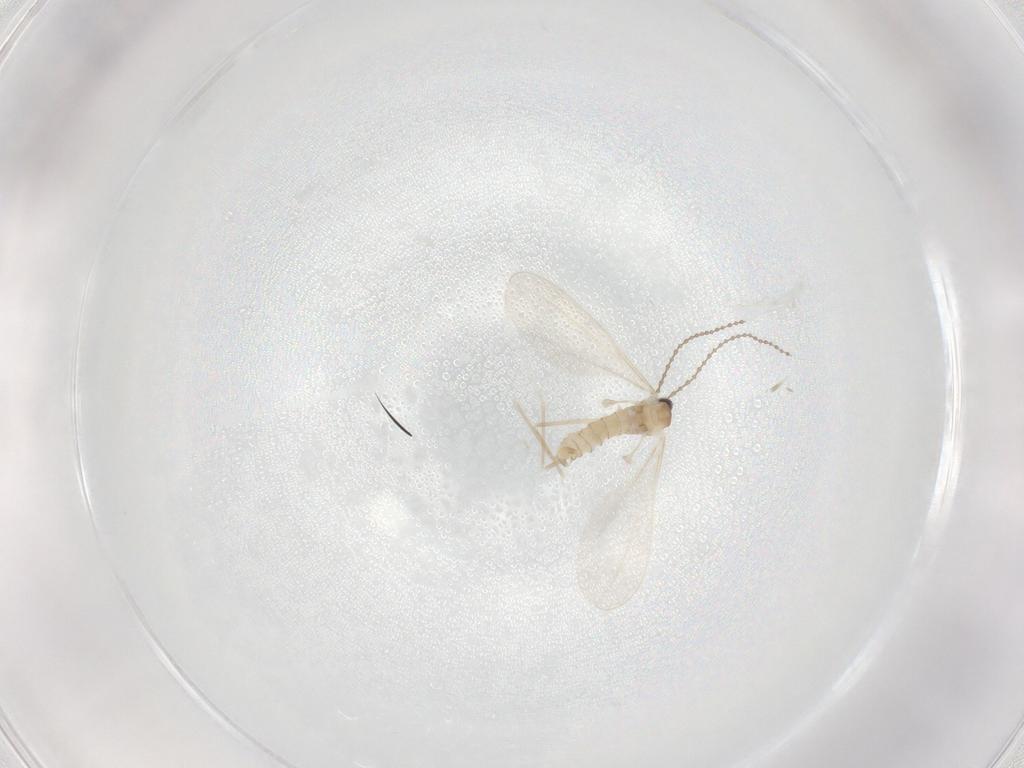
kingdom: Animalia
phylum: Arthropoda
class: Insecta
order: Diptera
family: Cecidomyiidae
